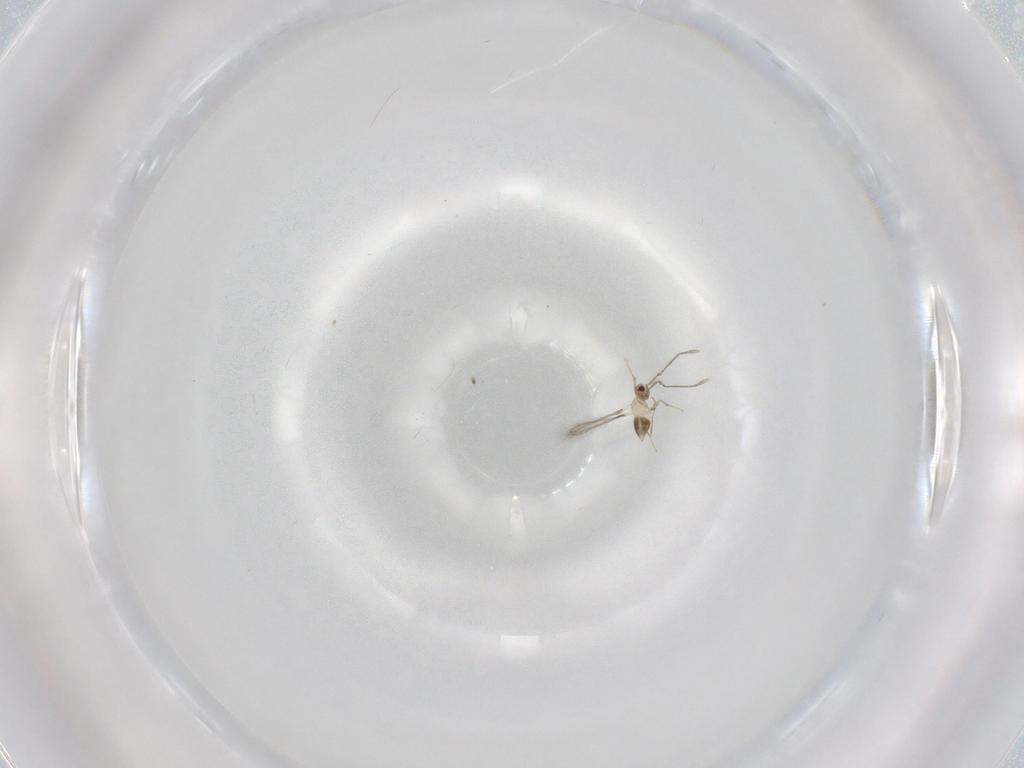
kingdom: Animalia
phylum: Arthropoda
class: Insecta
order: Hymenoptera
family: Mymaridae
